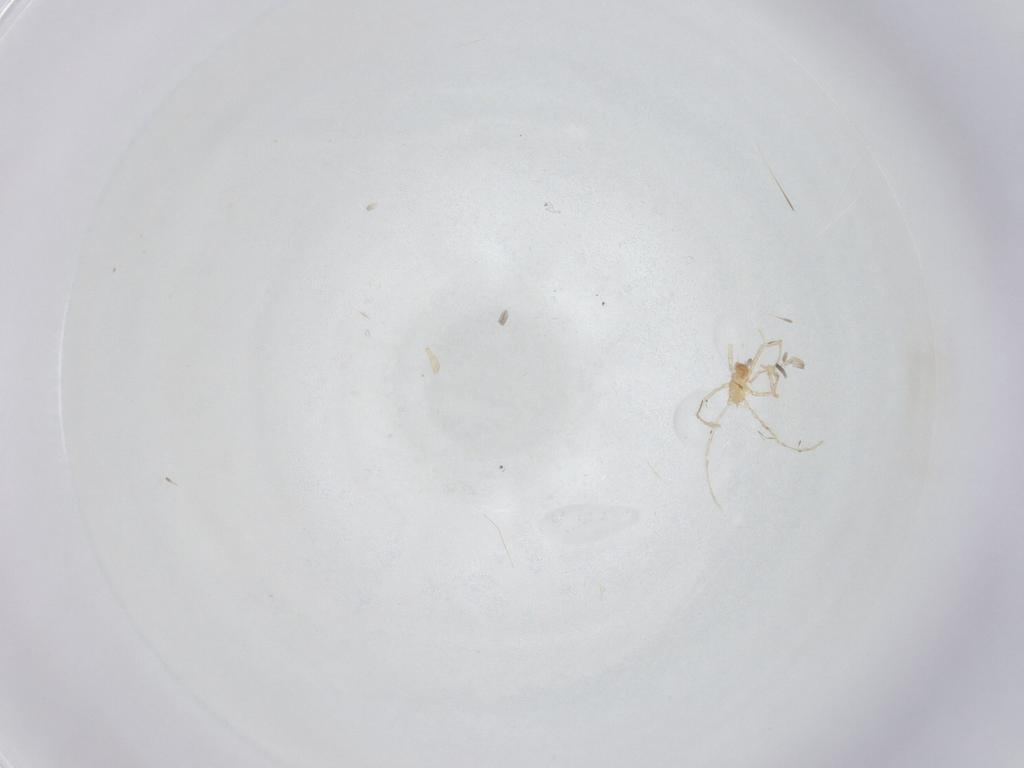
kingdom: Animalia
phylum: Arthropoda
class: Arachnida
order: Trombidiformes
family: Erythraeidae
